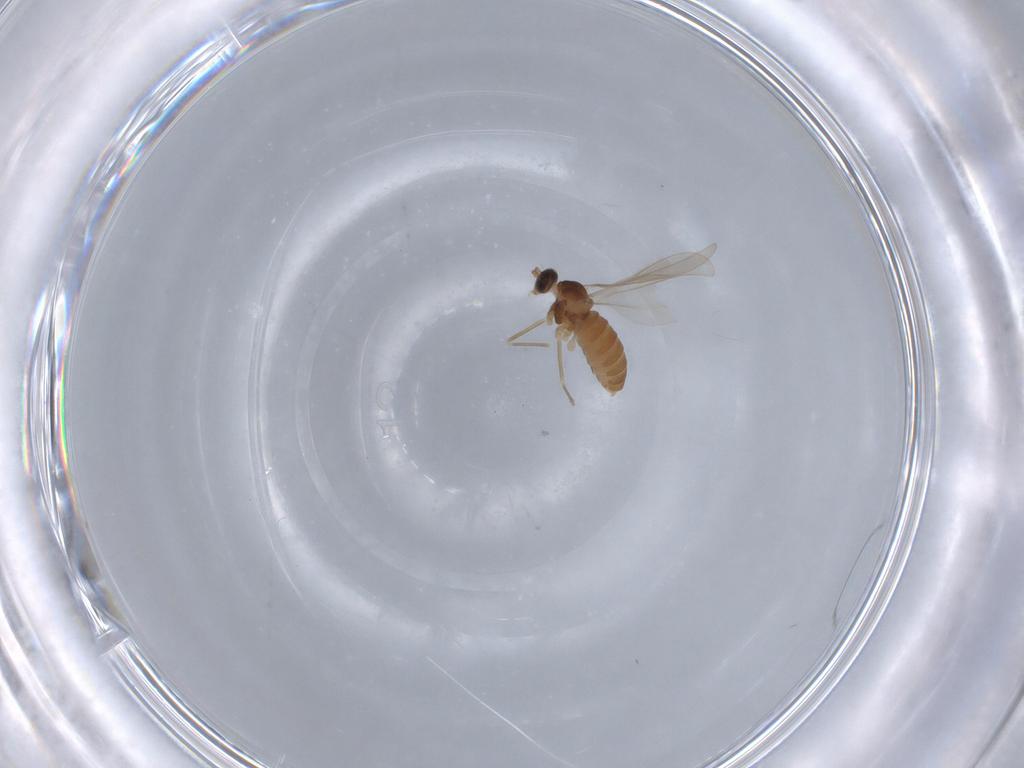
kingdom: Animalia
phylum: Arthropoda
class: Insecta
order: Diptera
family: Cecidomyiidae
